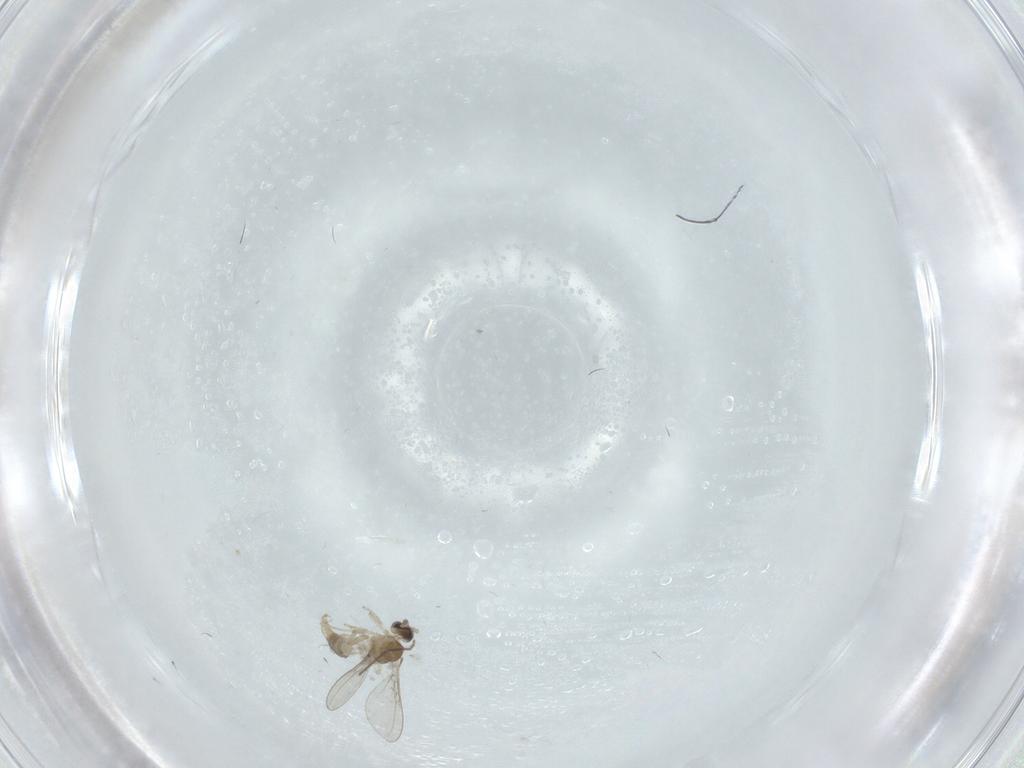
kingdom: Animalia
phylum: Arthropoda
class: Insecta
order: Diptera
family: Cecidomyiidae
